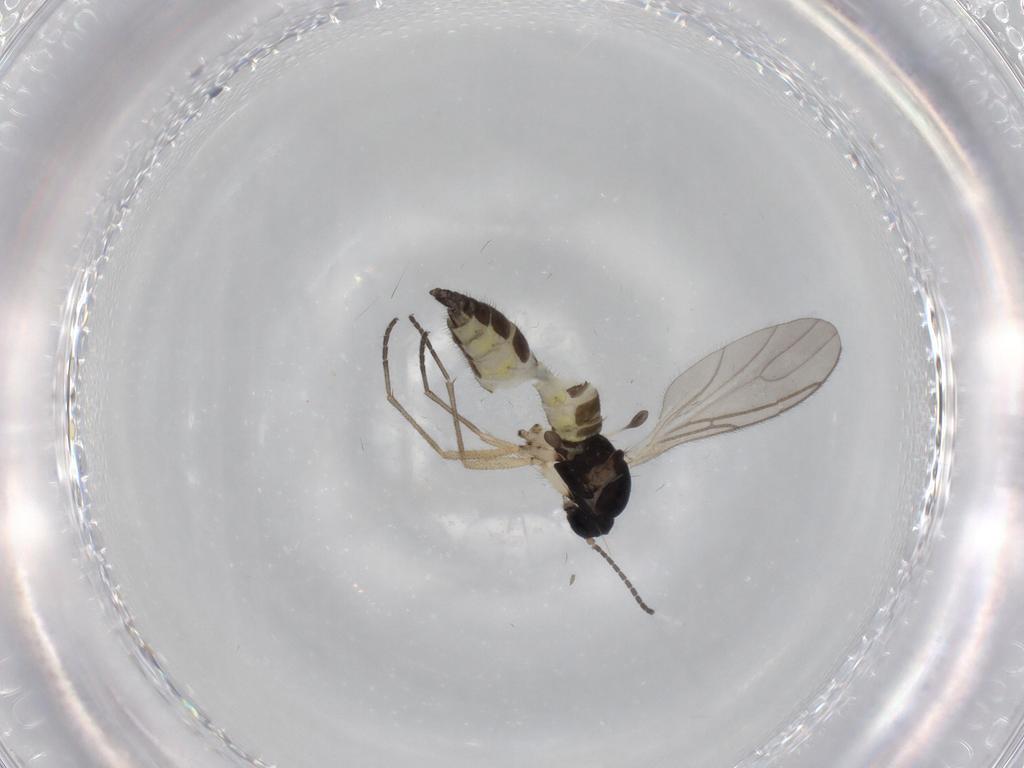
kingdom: Animalia
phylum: Arthropoda
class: Insecta
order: Diptera
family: Sciaridae
